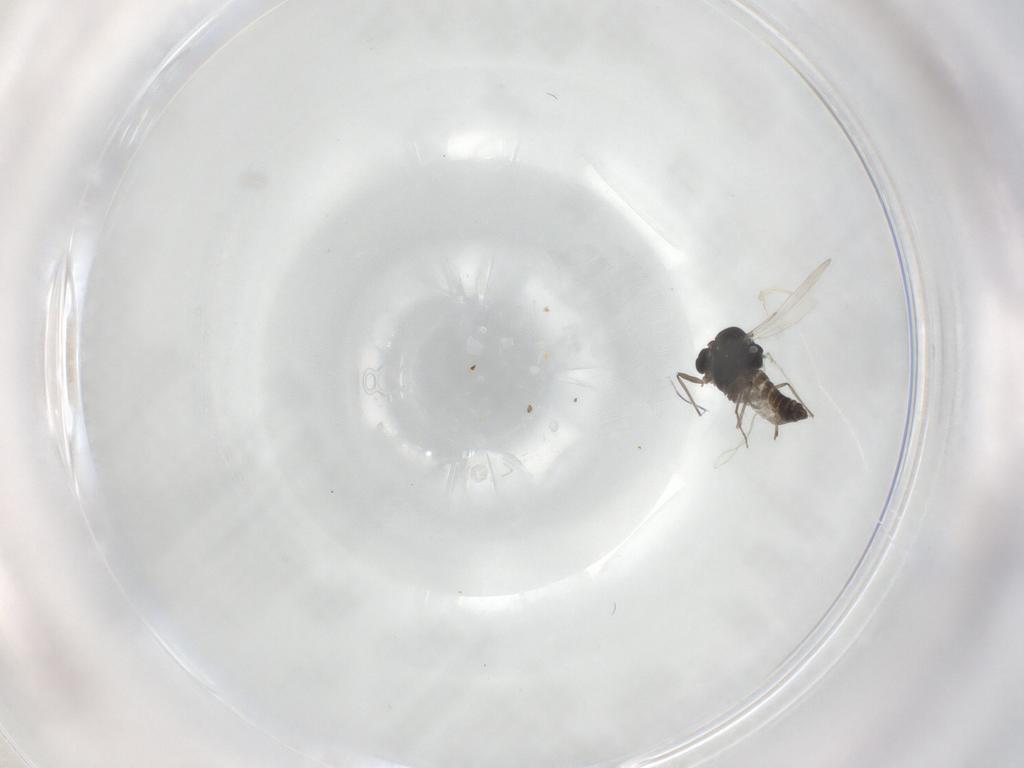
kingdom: Animalia
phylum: Arthropoda
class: Insecta
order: Diptera
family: Chironomidae
